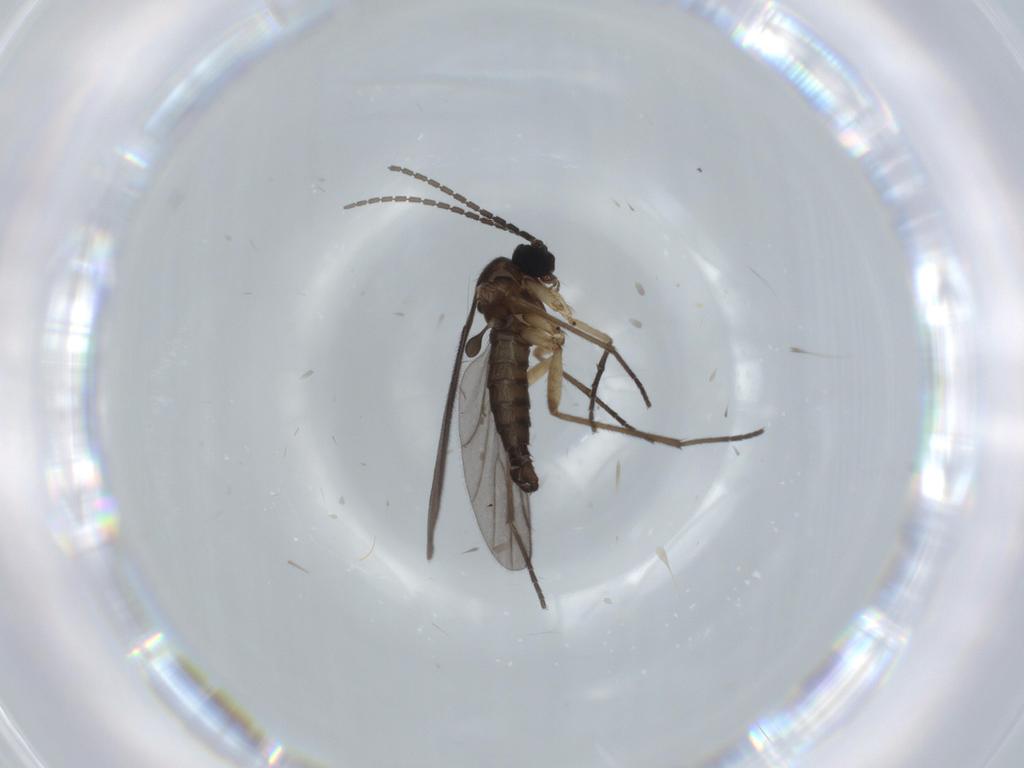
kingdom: Animalia
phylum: Arthropoda
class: Insecta
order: Diptera
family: Sciaridae
